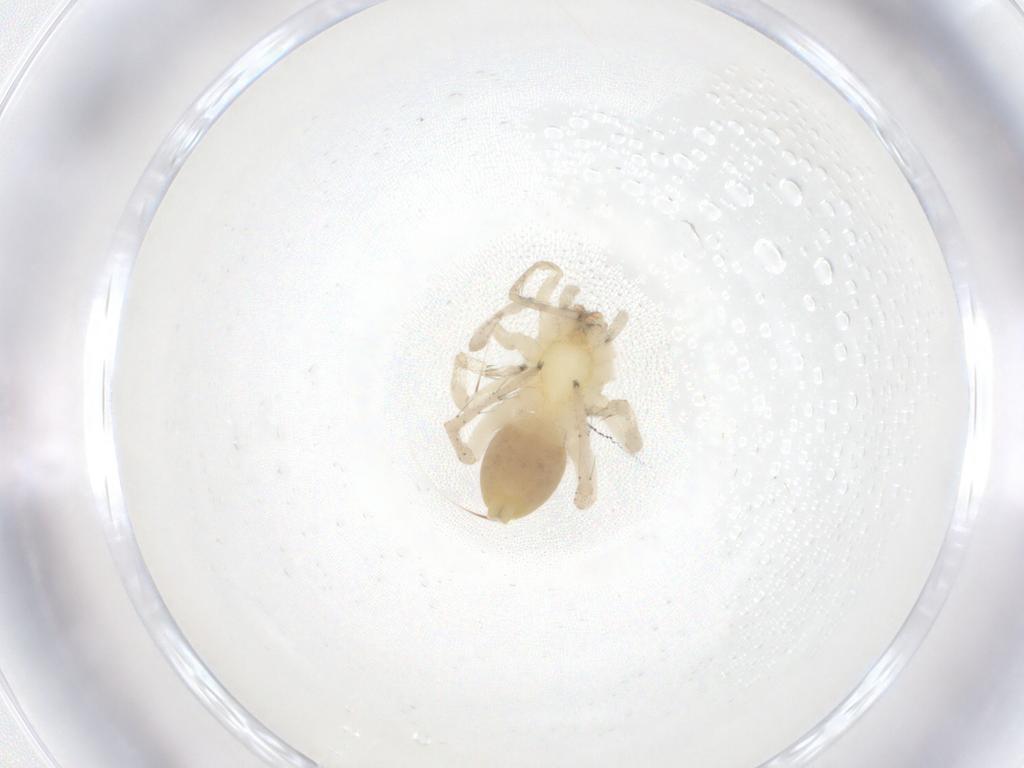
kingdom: Animalia
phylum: Arthropoda
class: Arachnida
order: Araneae
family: Clubionidae
